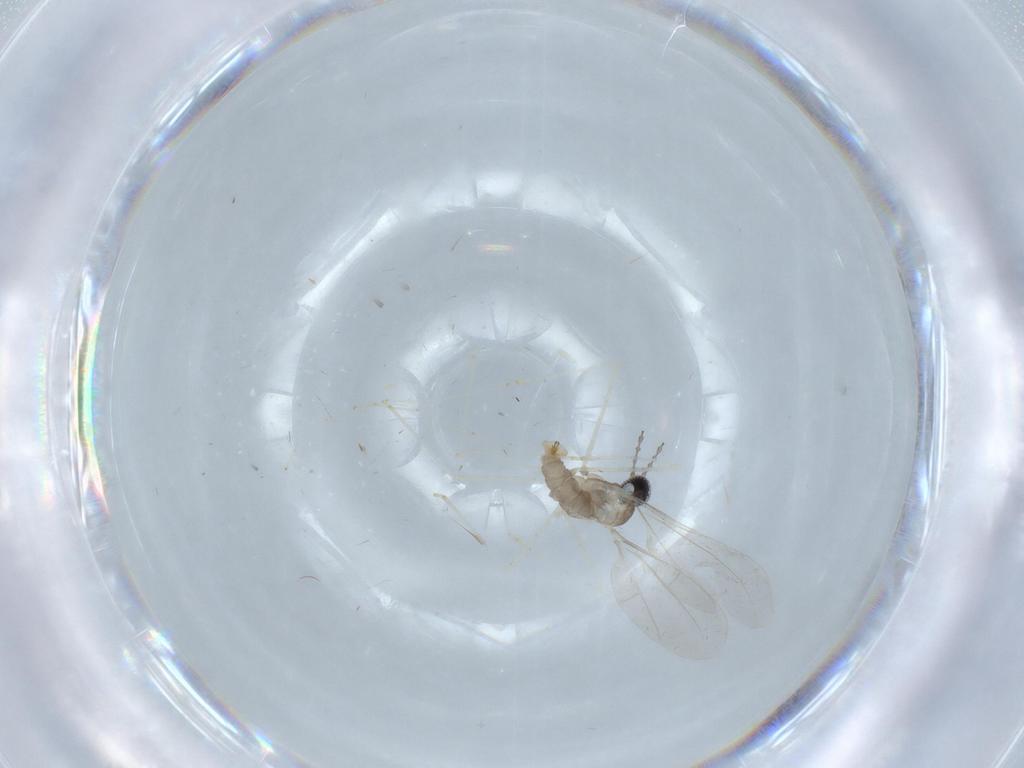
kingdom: Animalia
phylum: Arthropoda
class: Insecta
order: Diptera
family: Cecidomyiidae
